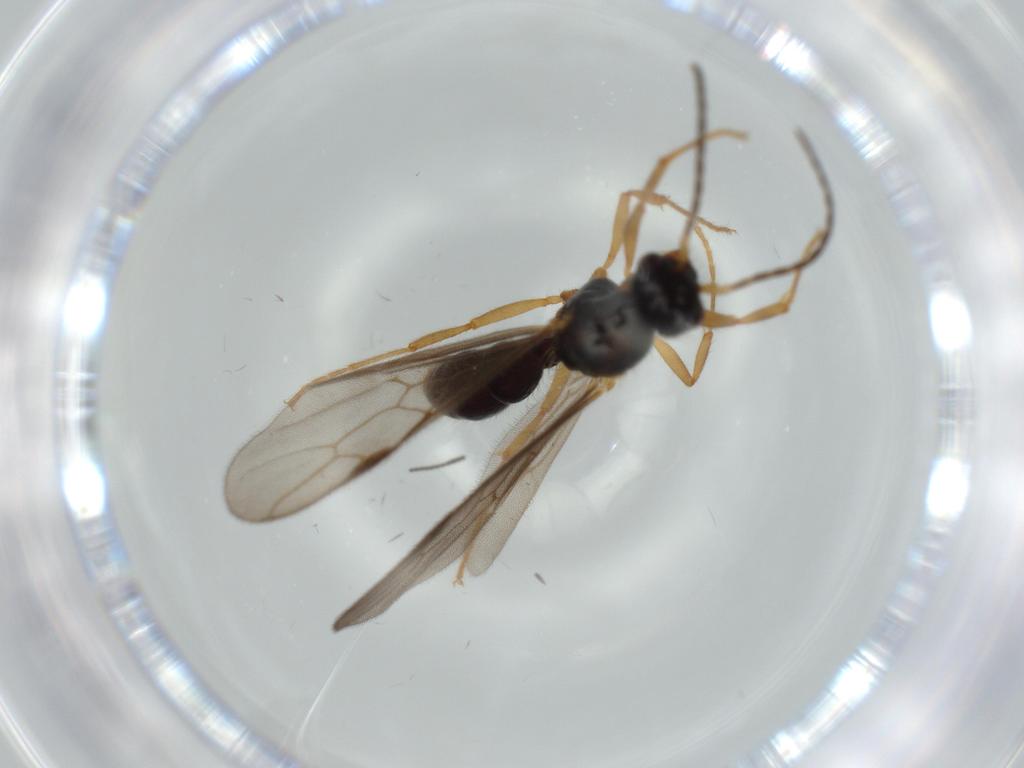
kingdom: Animalia
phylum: Arthropoda
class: Insecta
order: Hymenoptera
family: Formicidae
